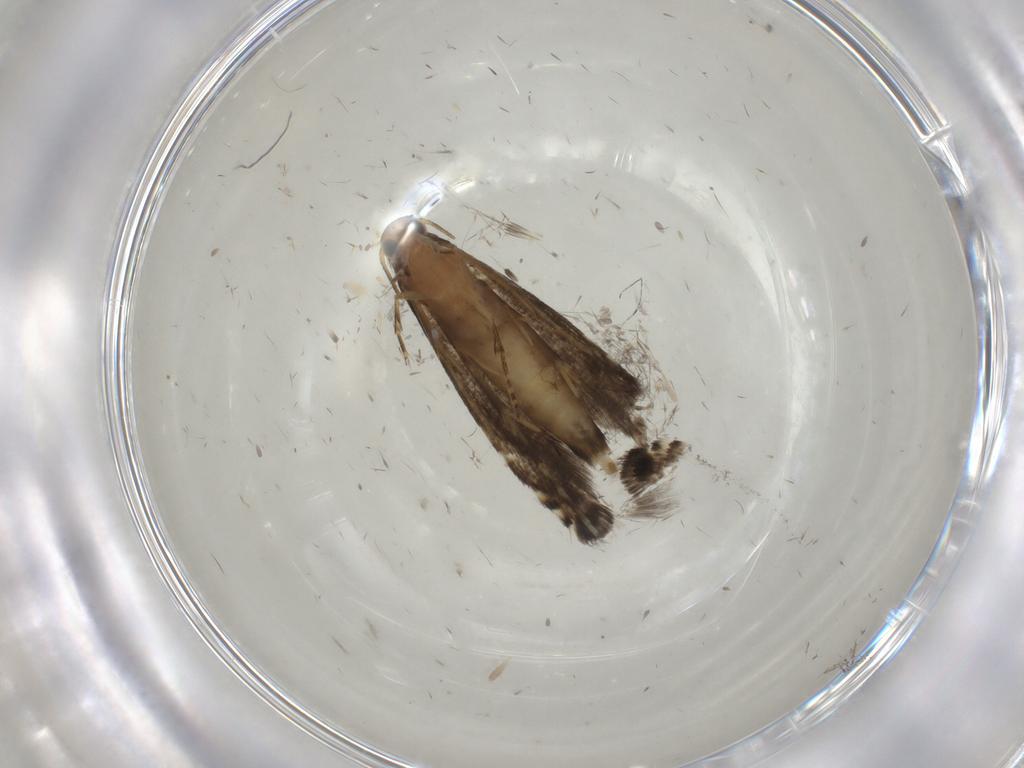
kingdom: Animalia
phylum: Arthropoda
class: Insecta
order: Lepidoptera
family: Glyphipterigidae
